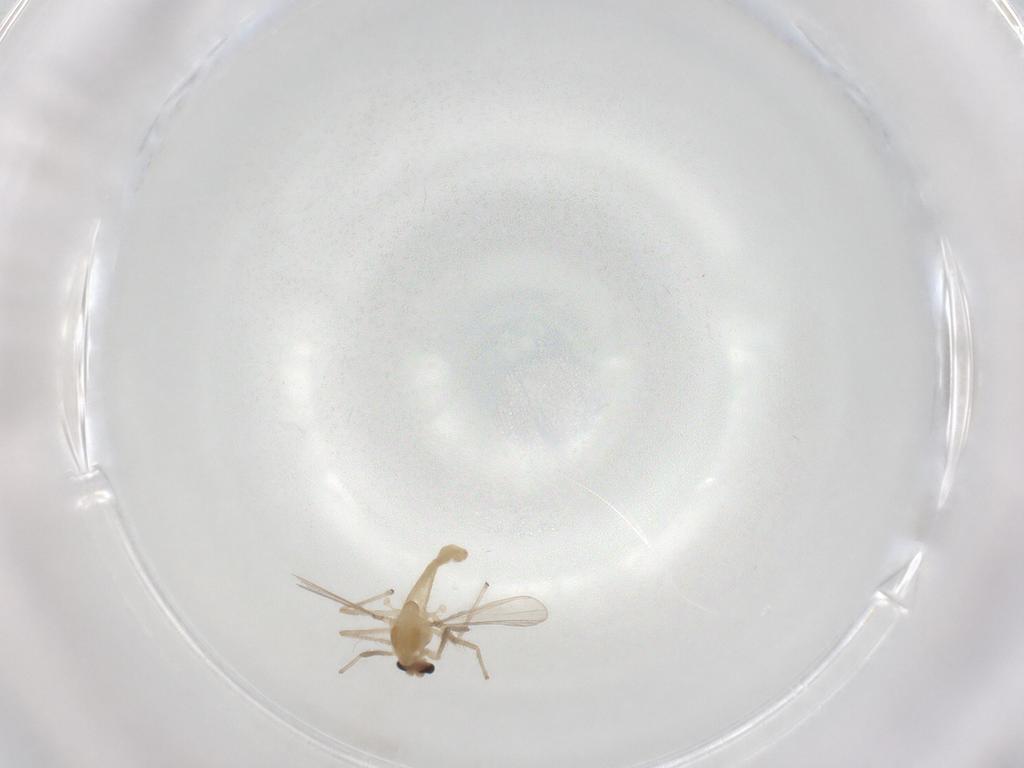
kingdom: Animalia
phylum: Arthropoda
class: Insecta
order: Diptera
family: Chironomidae
